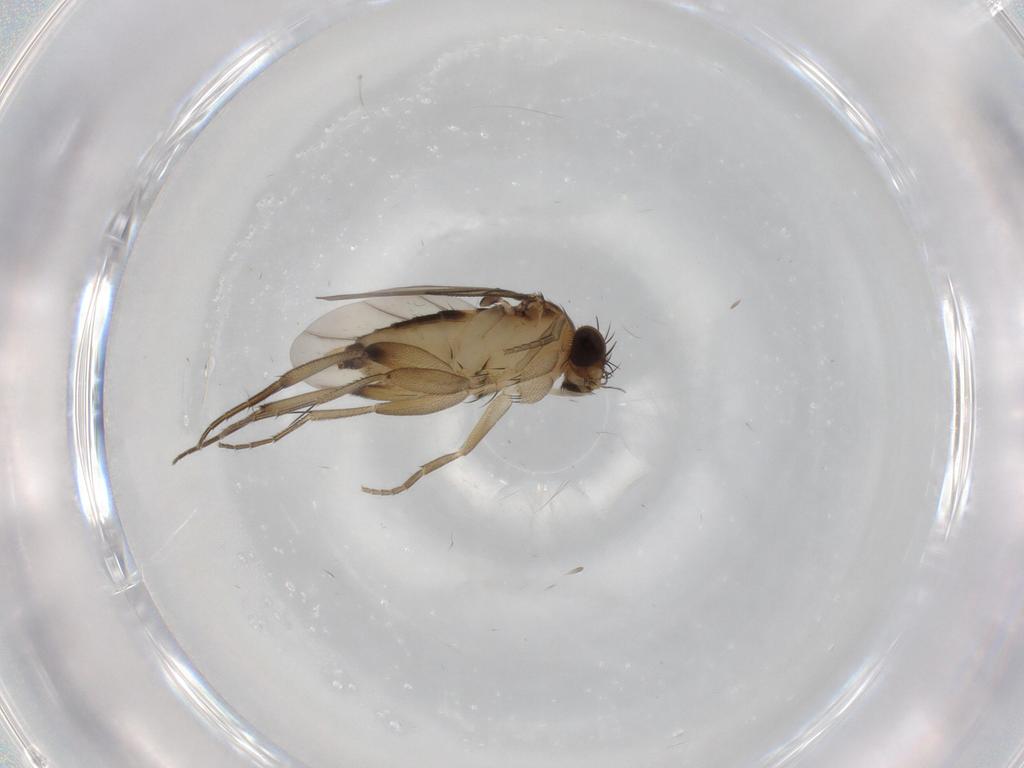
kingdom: Animalia
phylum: Arthropoda
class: Insecta
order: Diptera
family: Phoridae
